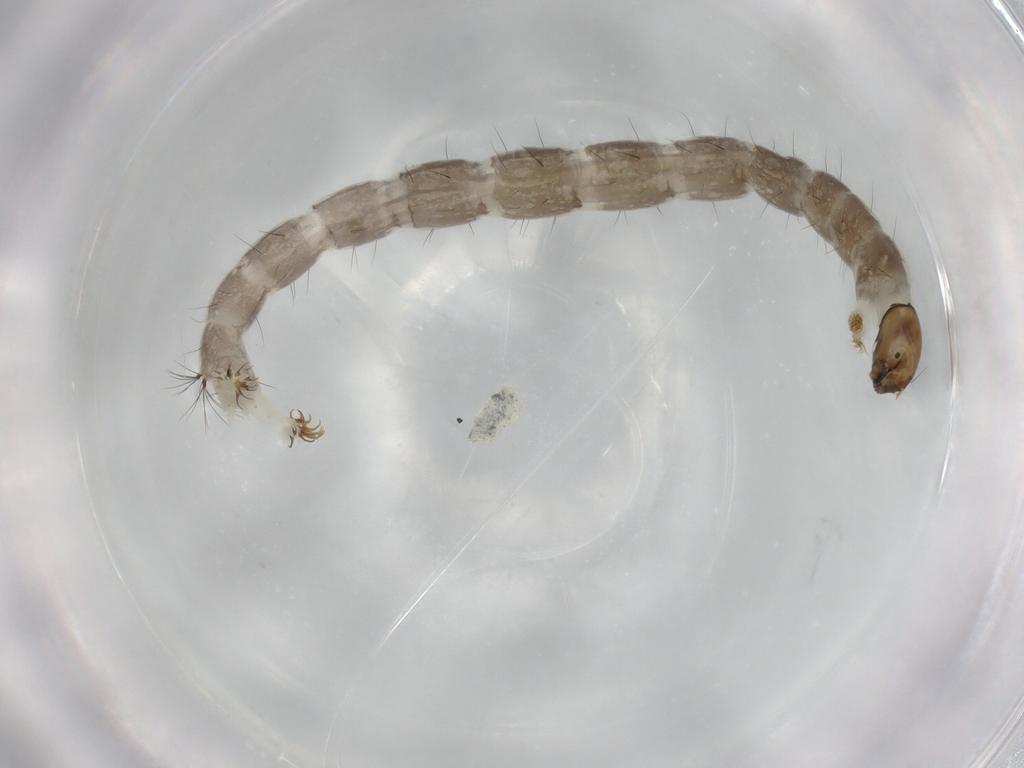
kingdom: Animalia
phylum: Arthropoda
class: Insecta
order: Diptera
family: Chironomidae
